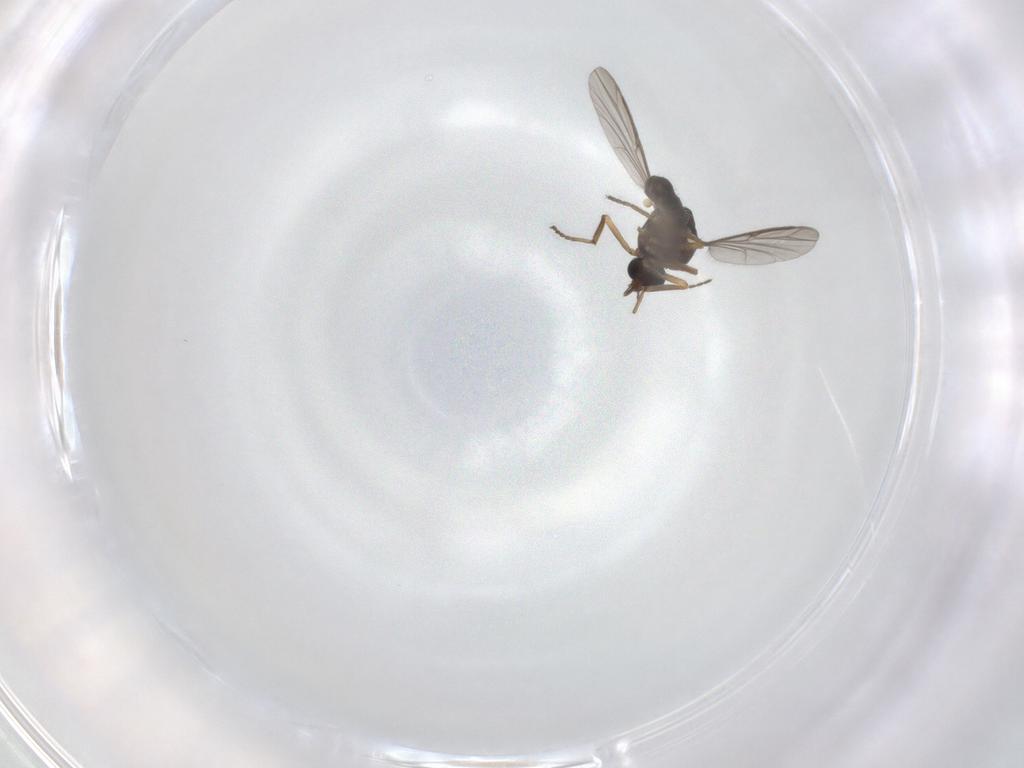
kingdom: Animalia
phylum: Arthropoda
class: Insecta
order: Diptera
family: Ceratopogonidae
